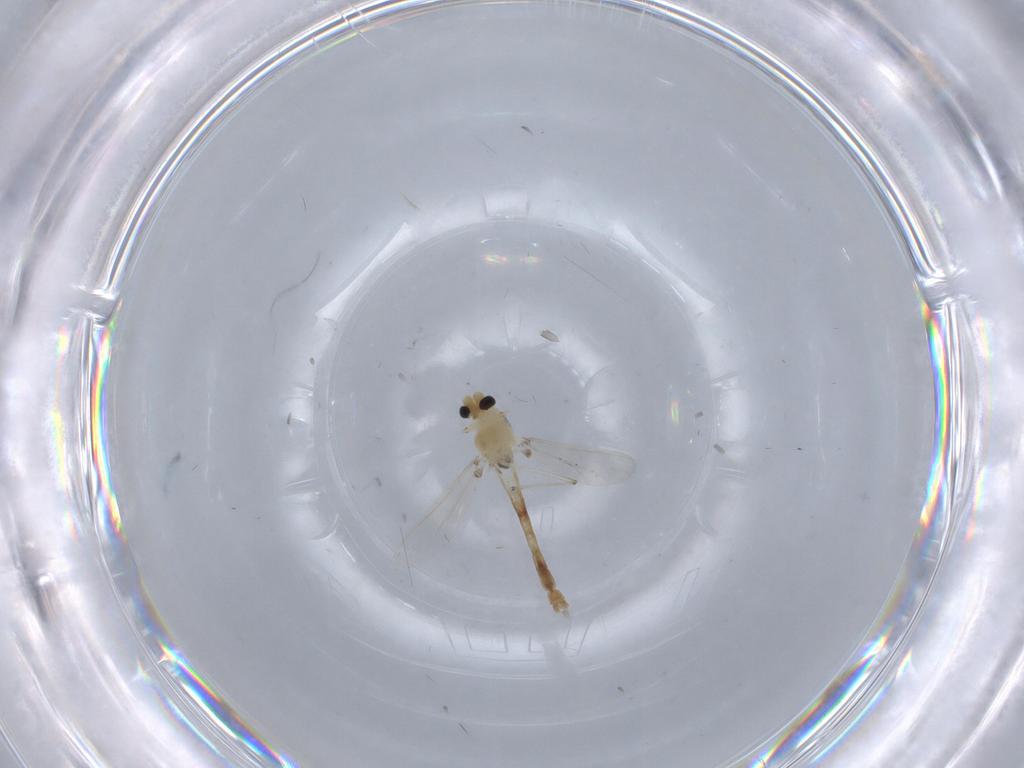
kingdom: Animalia
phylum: Arthropoda
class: Insecta
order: Diptera
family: Chironomidae
